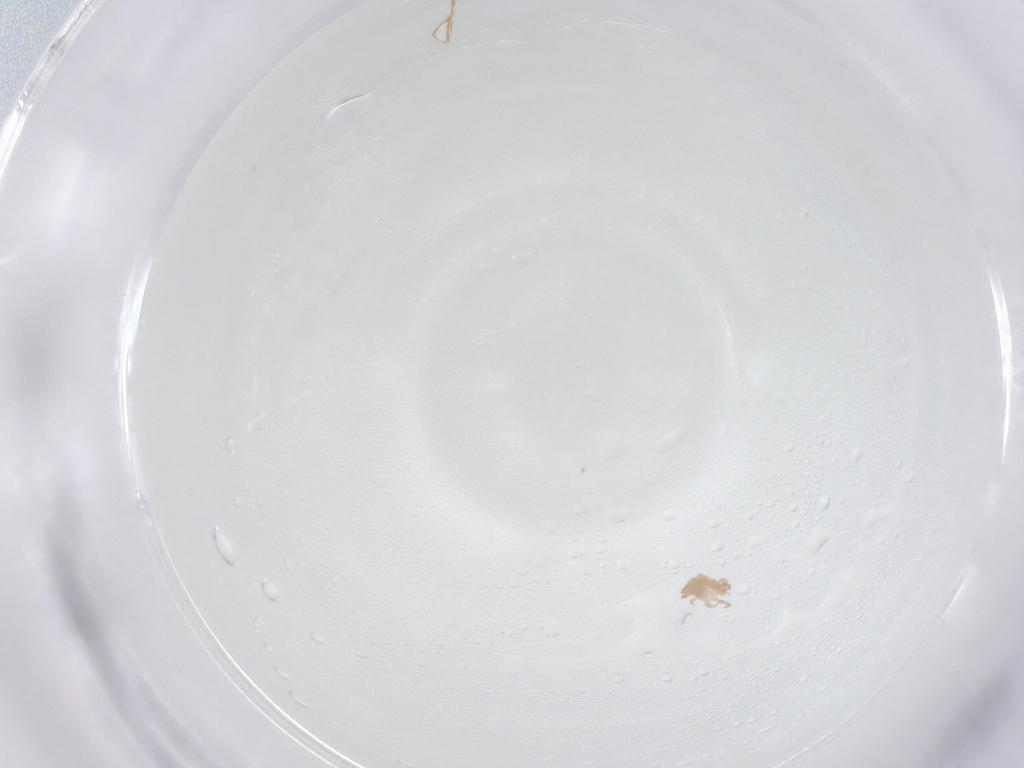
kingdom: Animalia
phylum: Arthropoda
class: Arachnida
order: Mesostigmata
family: Digamasellidae
